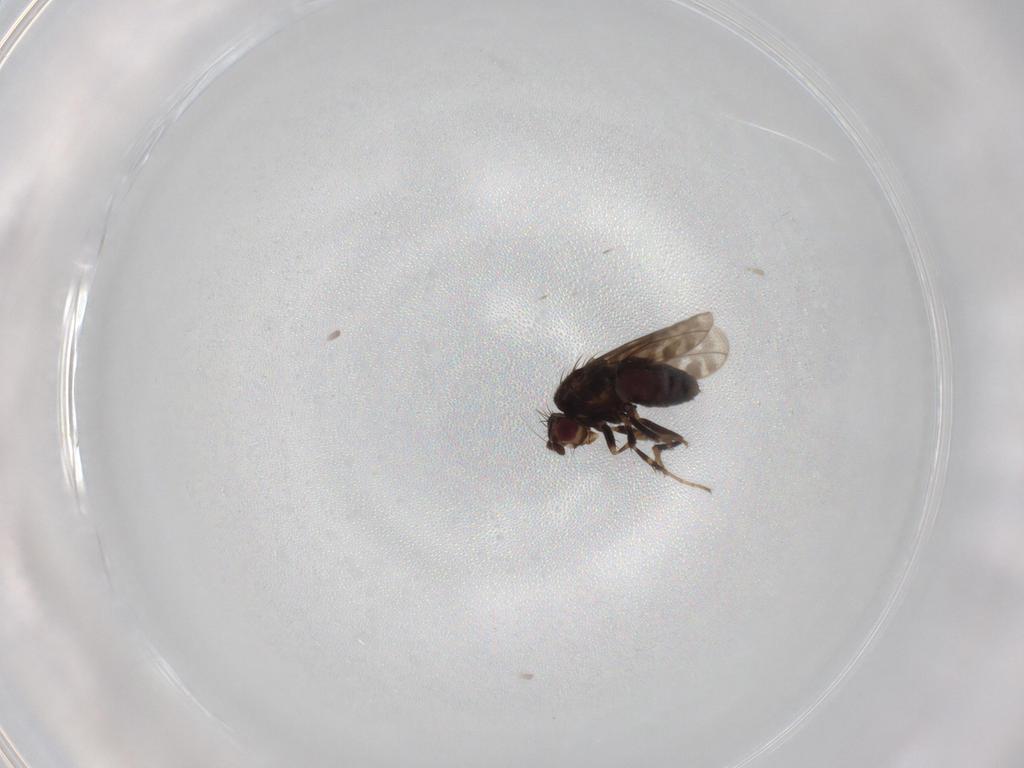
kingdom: Animalia
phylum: Arthropoda
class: Insecta
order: Diptera
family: Sphaeroceridae
